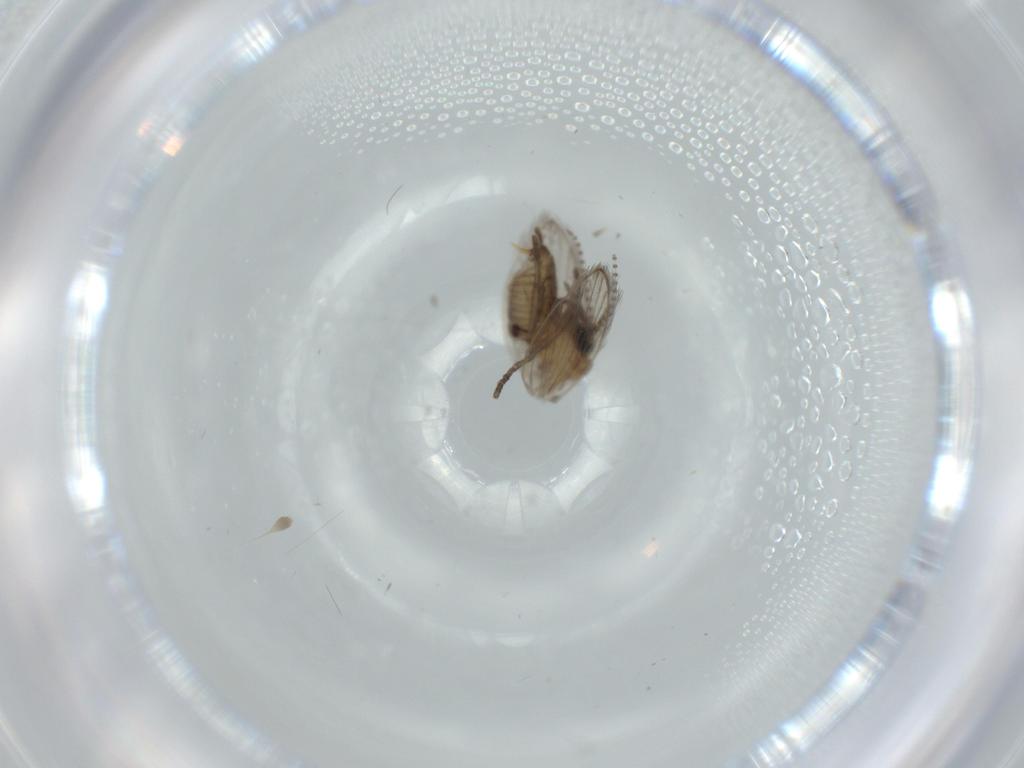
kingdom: Animalia
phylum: Arthropoda
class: Insecta
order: Diptera
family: Psychodidae
